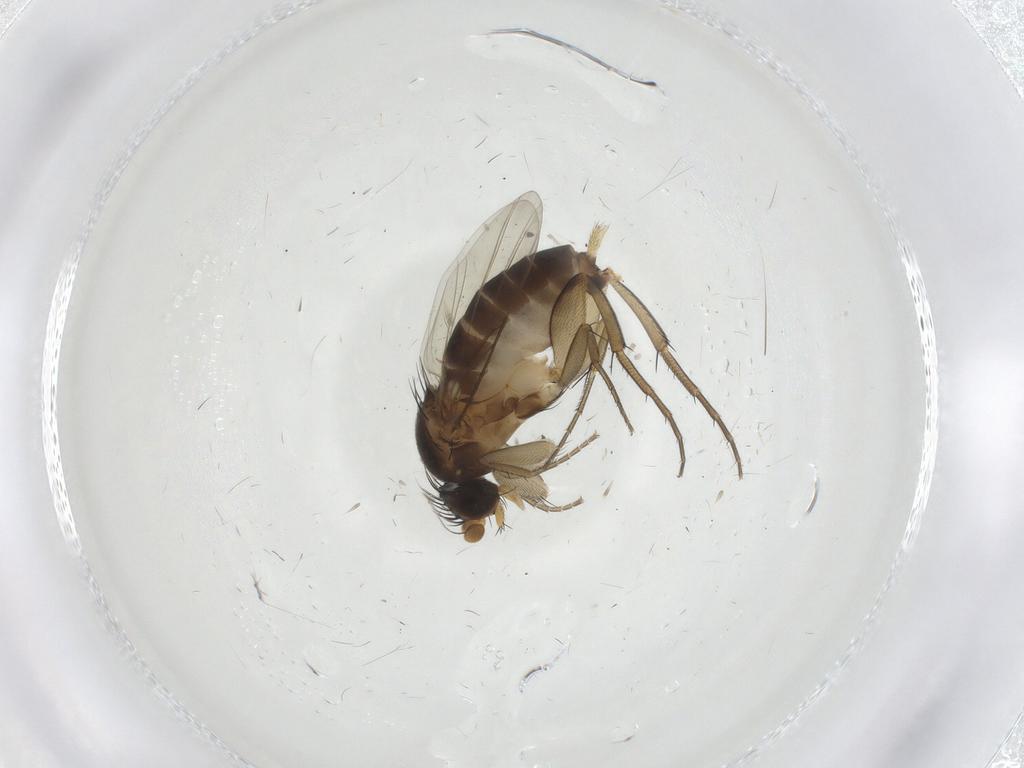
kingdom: Animalia
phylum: Arthropoda
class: Insecta
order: Diptera
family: Phoridae
